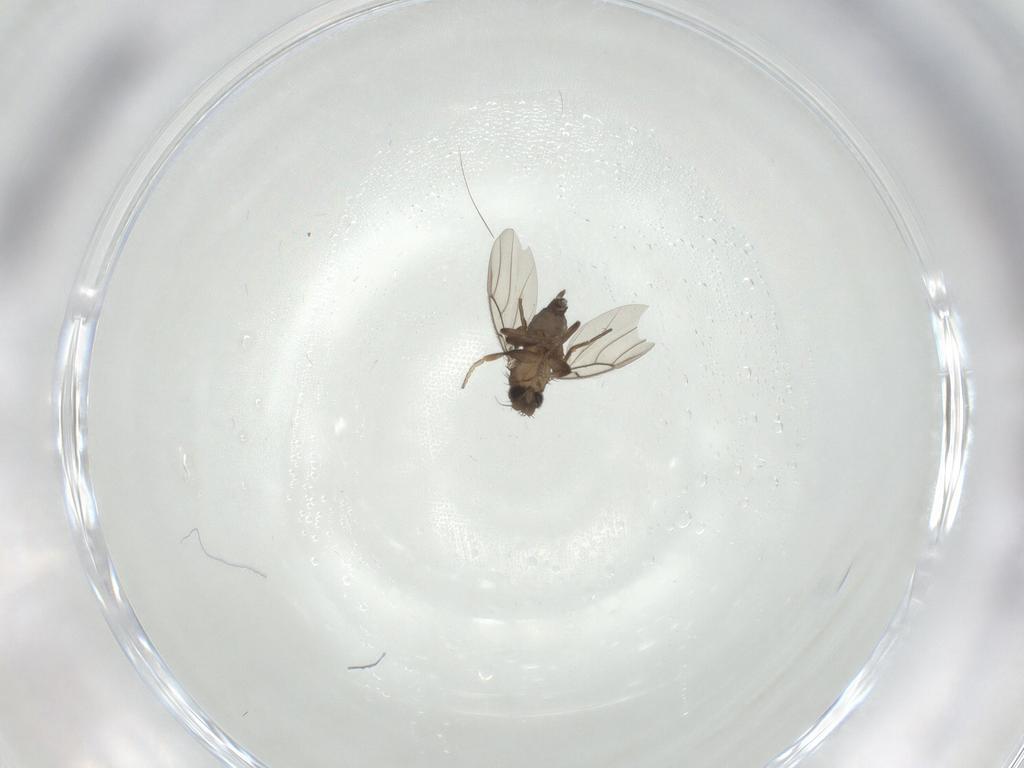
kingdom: Animalia
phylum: Arthropoda
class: Insecta
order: Diptera
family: Phoridae
